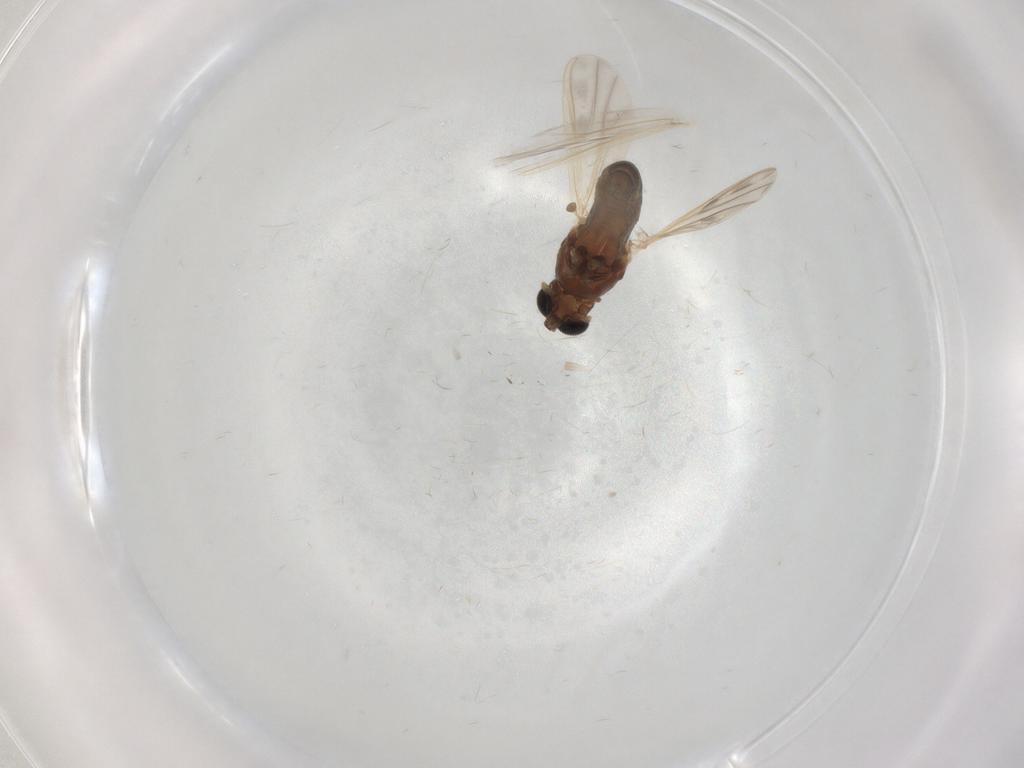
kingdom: Animalia
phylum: Arthropoda
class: Insecta
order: Diptera
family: Chironomidae
